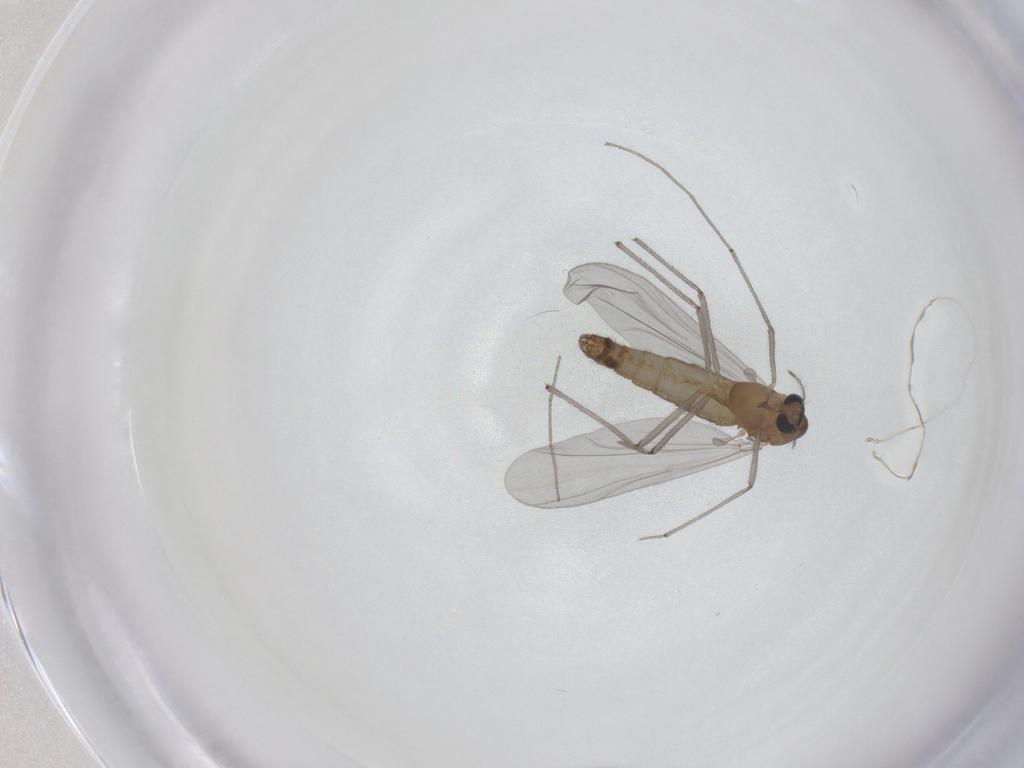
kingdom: Animalia
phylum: Arthropoda
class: Insecta
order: Diptera
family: Chironomidae
